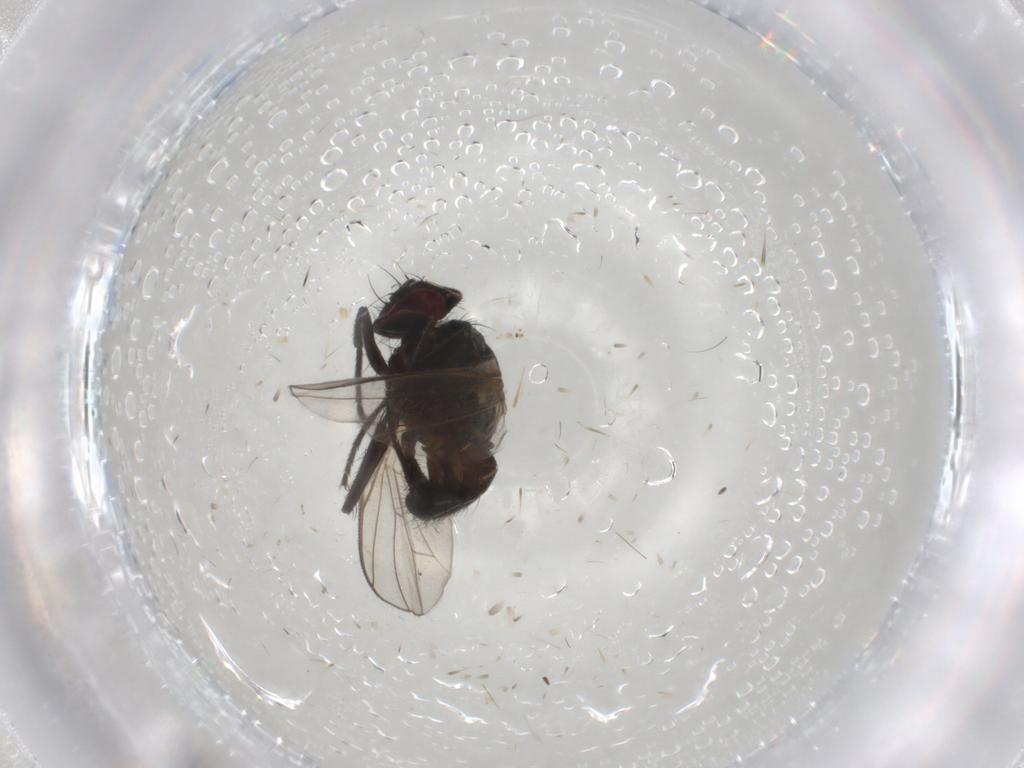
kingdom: Animalia
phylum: Arthropoda
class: Insecta
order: Diptera
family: Muscidae
